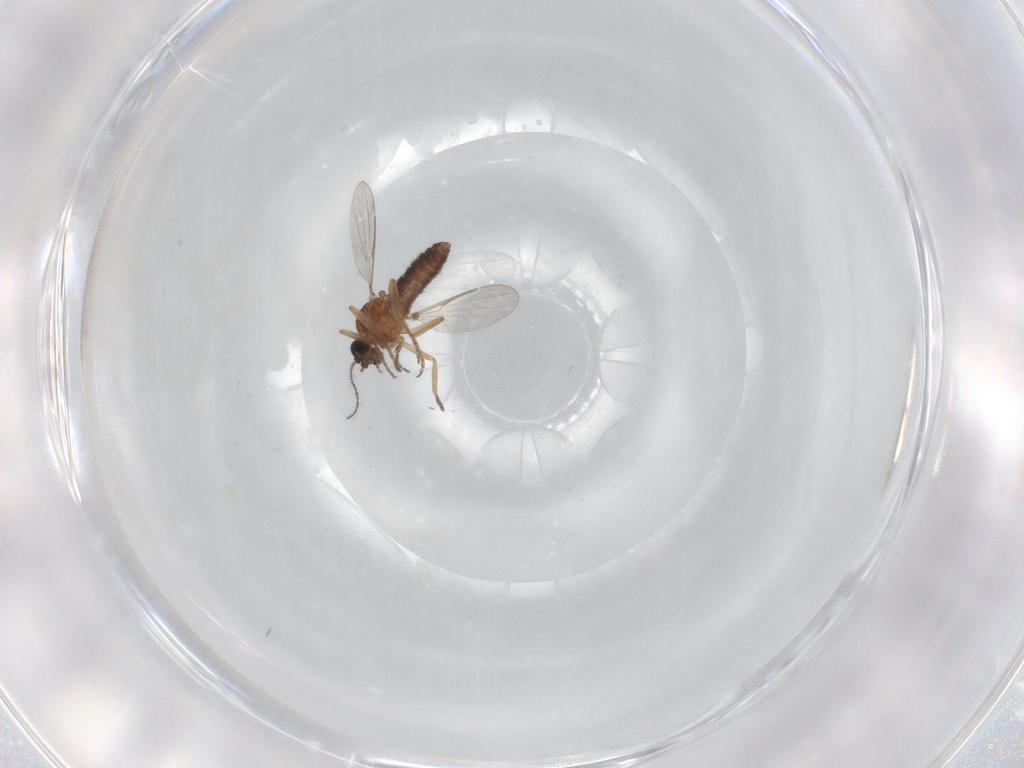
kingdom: Animalia
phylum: Arthropoda
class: Insecta
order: Diptera
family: Ceratopogonidae
